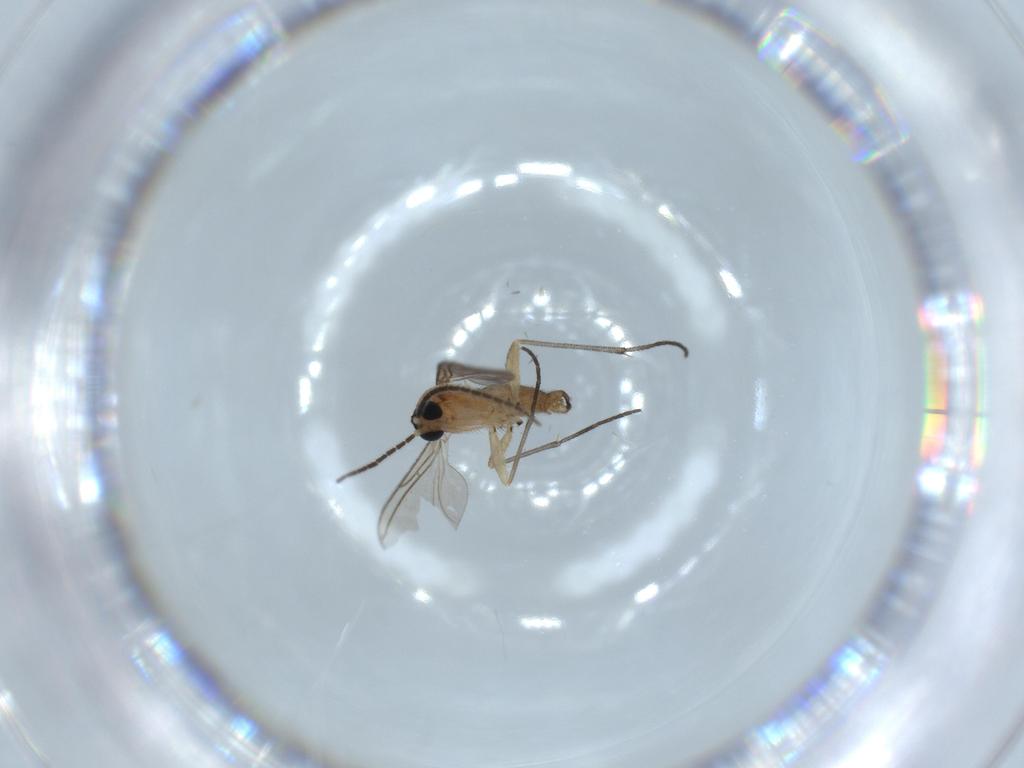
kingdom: Animalia
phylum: Arthropoda
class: Insecta
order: Diptera
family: Sciaridae
